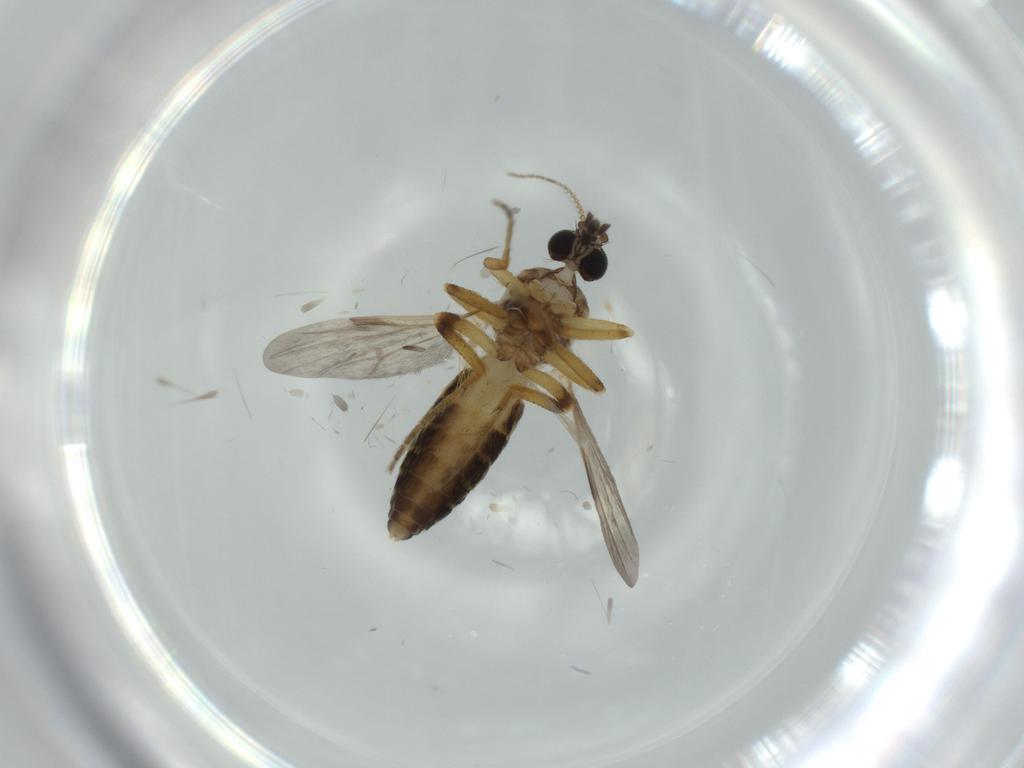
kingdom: Animalia
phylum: Arthropoda
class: Insecta
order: Diptera
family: Ceratopogonidae
